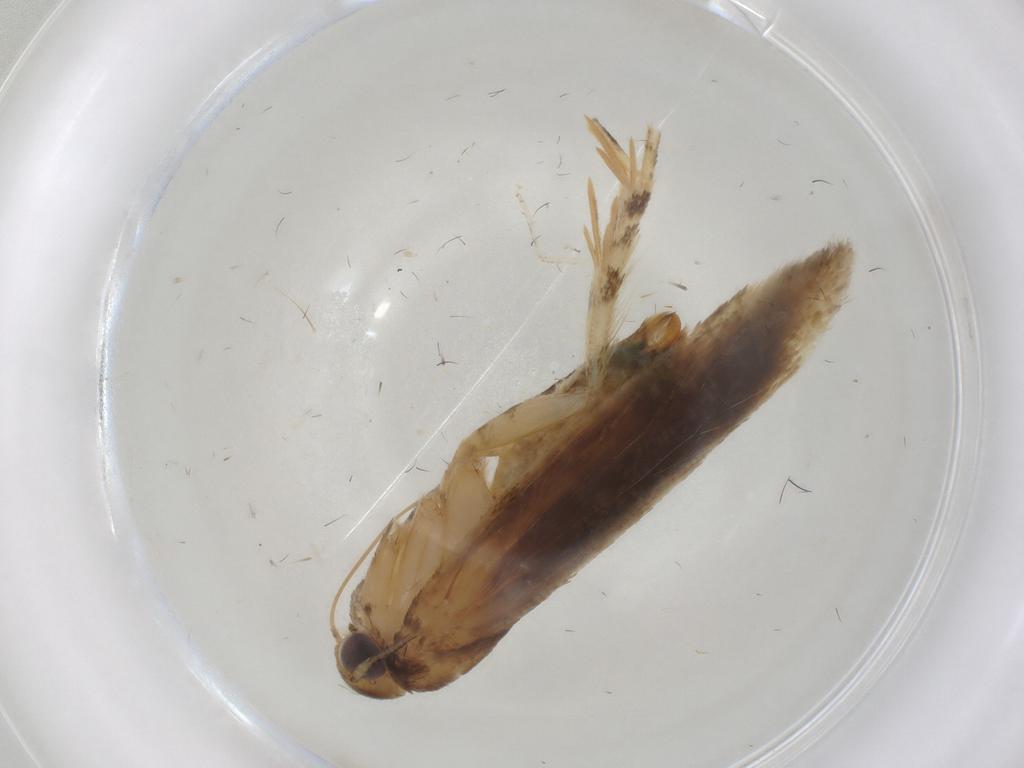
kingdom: Animalia
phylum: Arthropoda
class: Insecta
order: Lepidoptera
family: Gelechiidae
